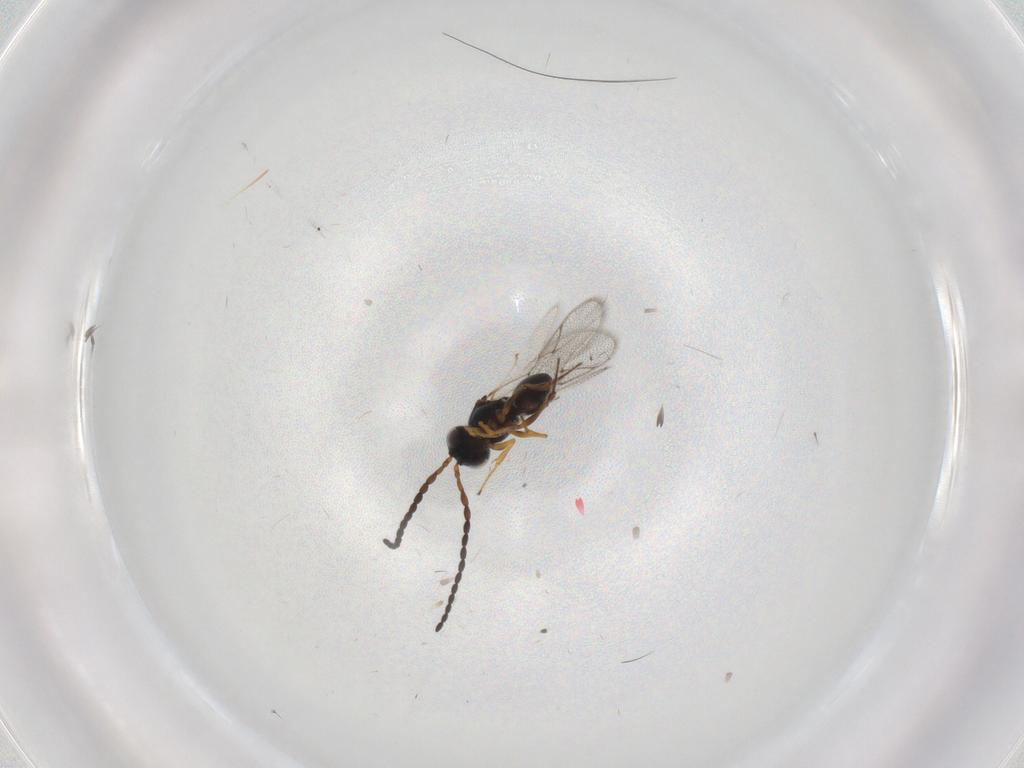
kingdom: Animalia
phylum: Arthropoda
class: Insecta
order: Hymenoptera
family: Figitidae
